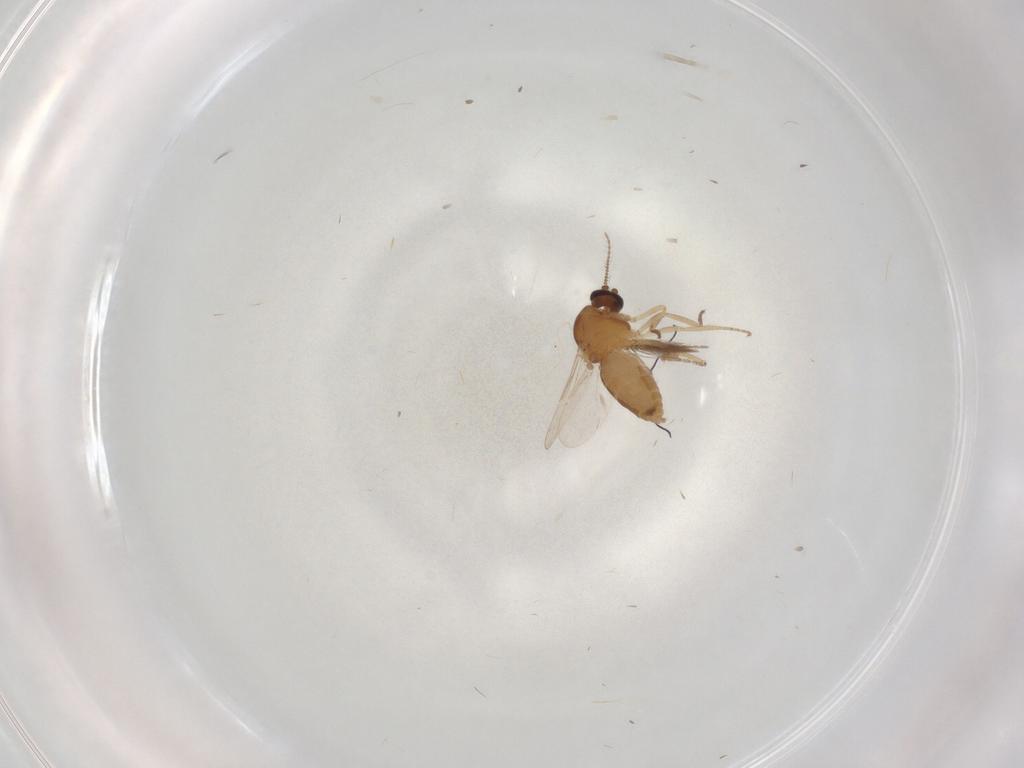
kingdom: Animalia
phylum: Arthropoda
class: Insecta
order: Diptera
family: Ceratopogonidae
